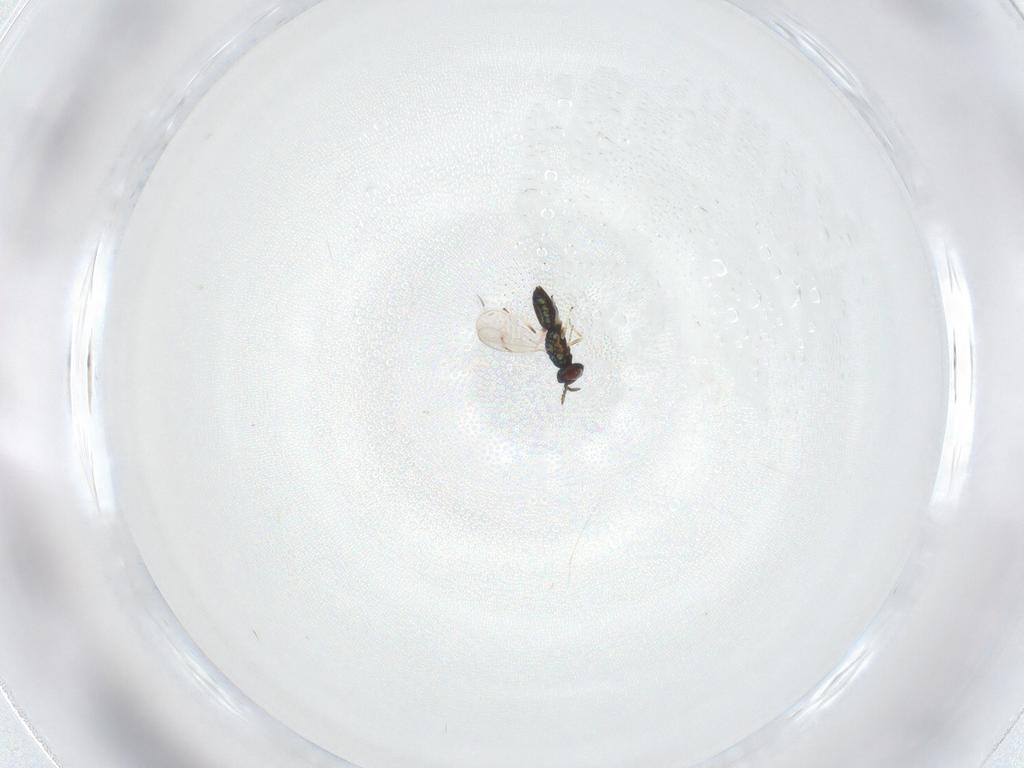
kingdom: Animalia
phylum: Arthropoda
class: Insecta
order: Hymenoptera
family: Eulophidae
